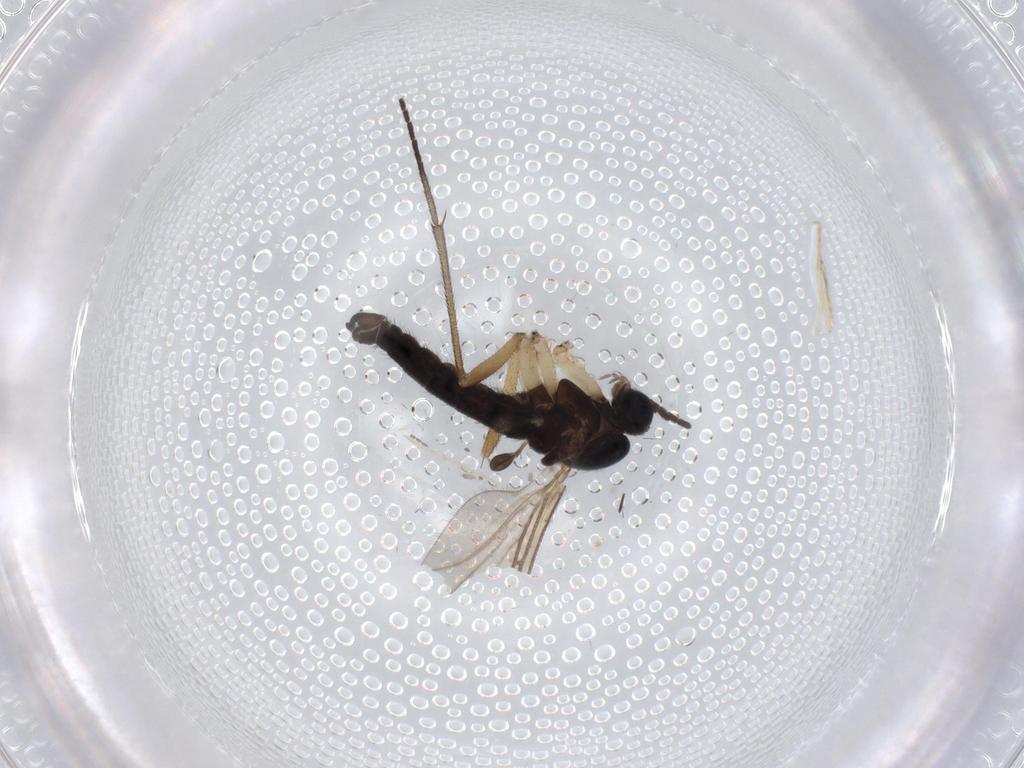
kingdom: Animalia
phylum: Arthropoda
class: Insecta
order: Diptera
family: Sciaridae
